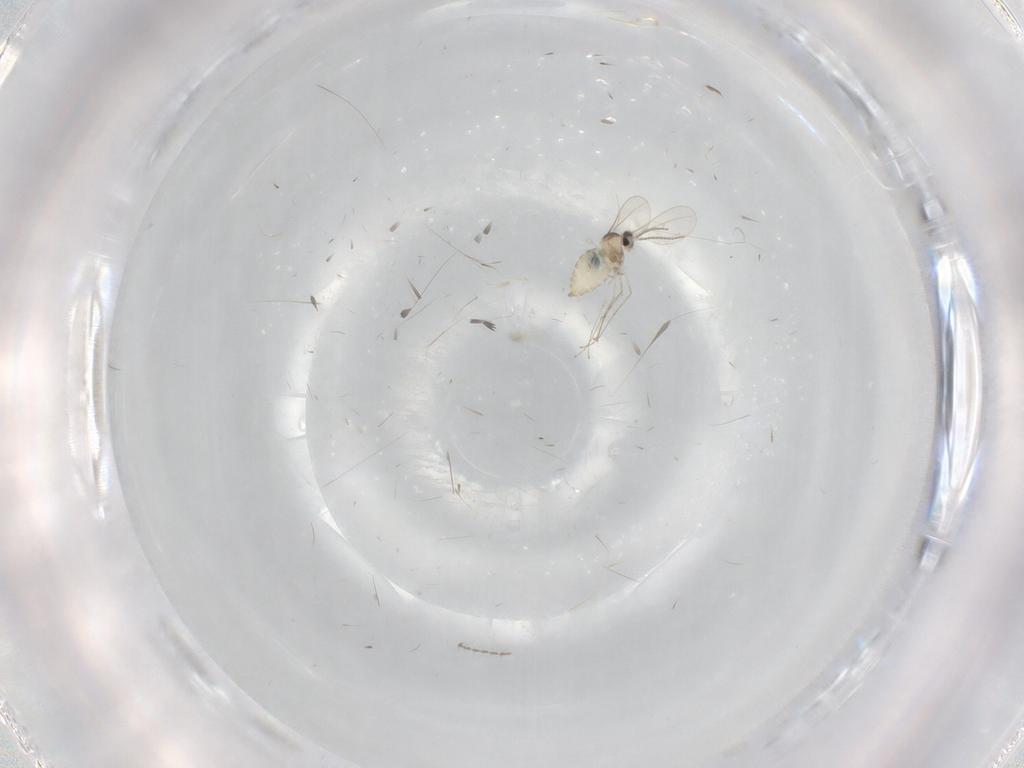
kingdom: Animalia
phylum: Arthropoda
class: Insecta
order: Diptera
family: Cecidomyiidae
